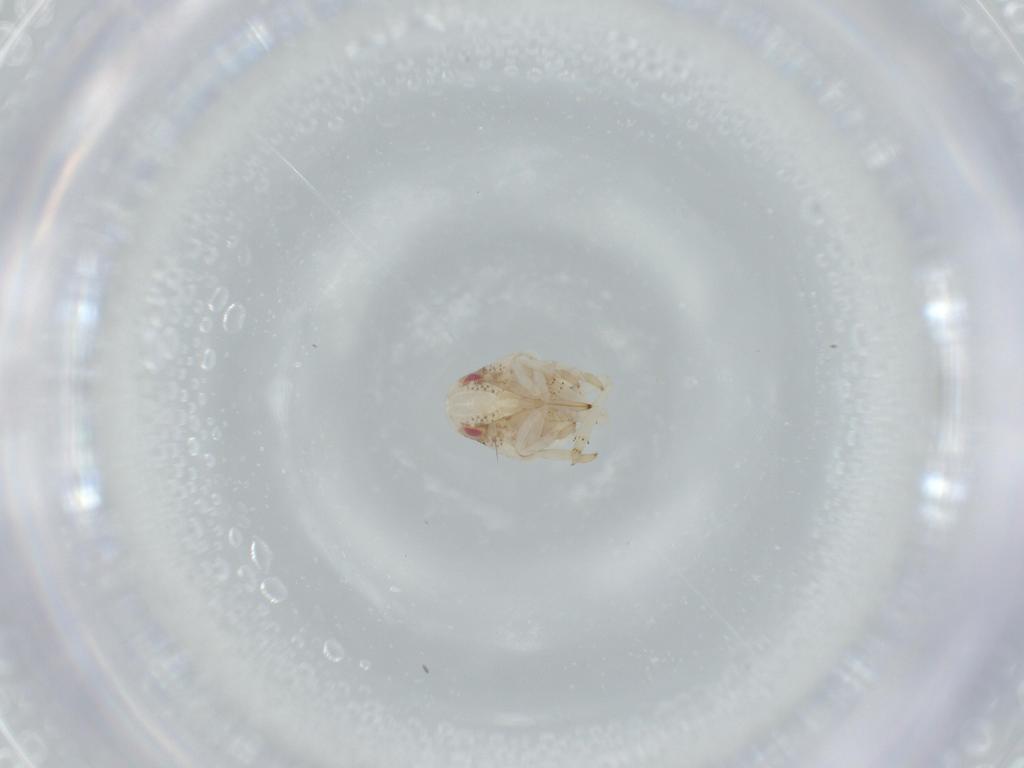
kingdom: Animalia
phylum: Arthropoda
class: Insecta
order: Hemiptera
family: Acanaloniidae
